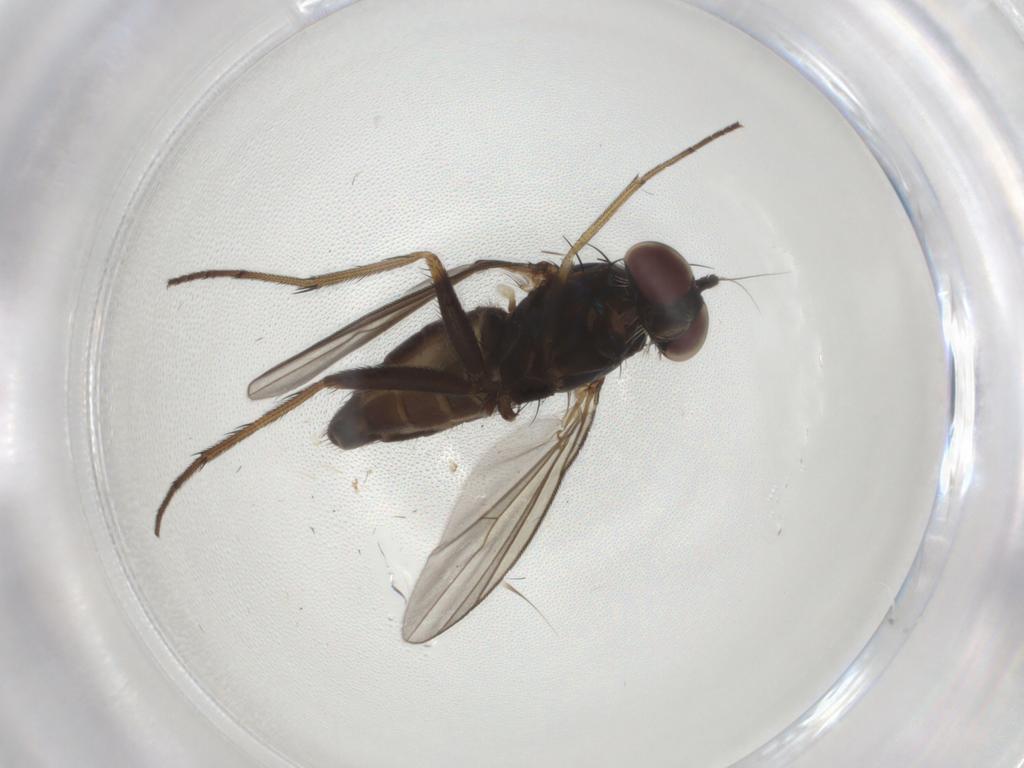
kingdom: Animalia
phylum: Arthropoda
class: Insecta
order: Diptera
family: Dolichopodidae
